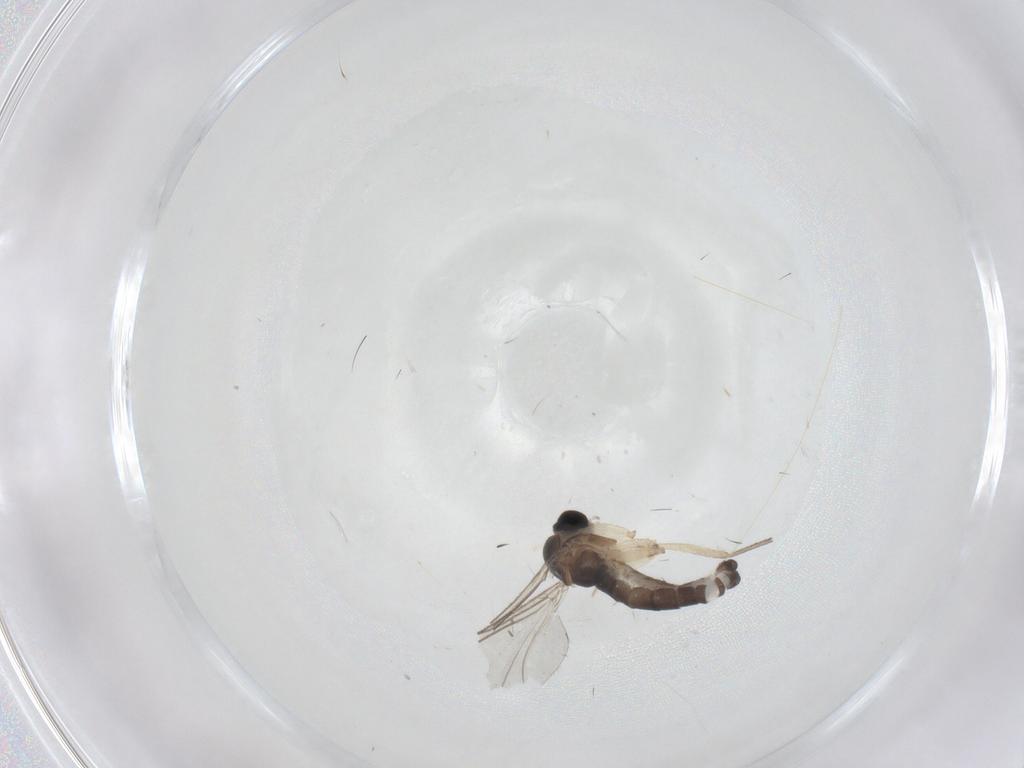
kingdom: Animalia
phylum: Arthropoda
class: Insecta
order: Diptera
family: Sciaridae
